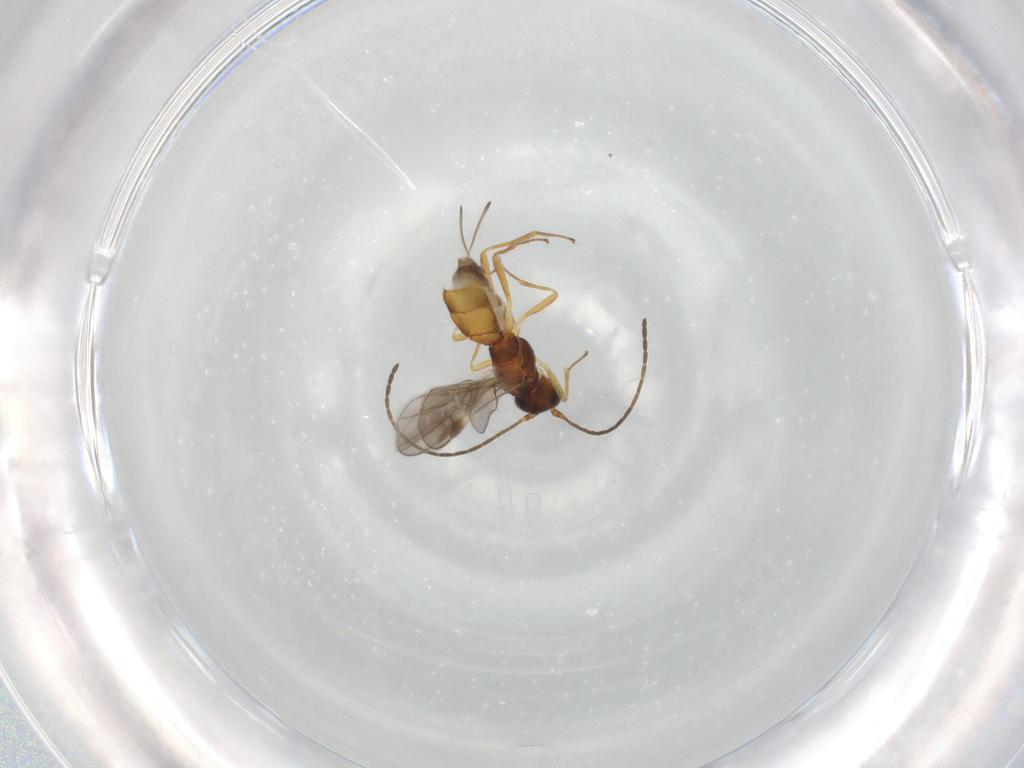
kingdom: Animalia
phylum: Arthropoda
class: Insecta
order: Hymenoptera
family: Braconidae
